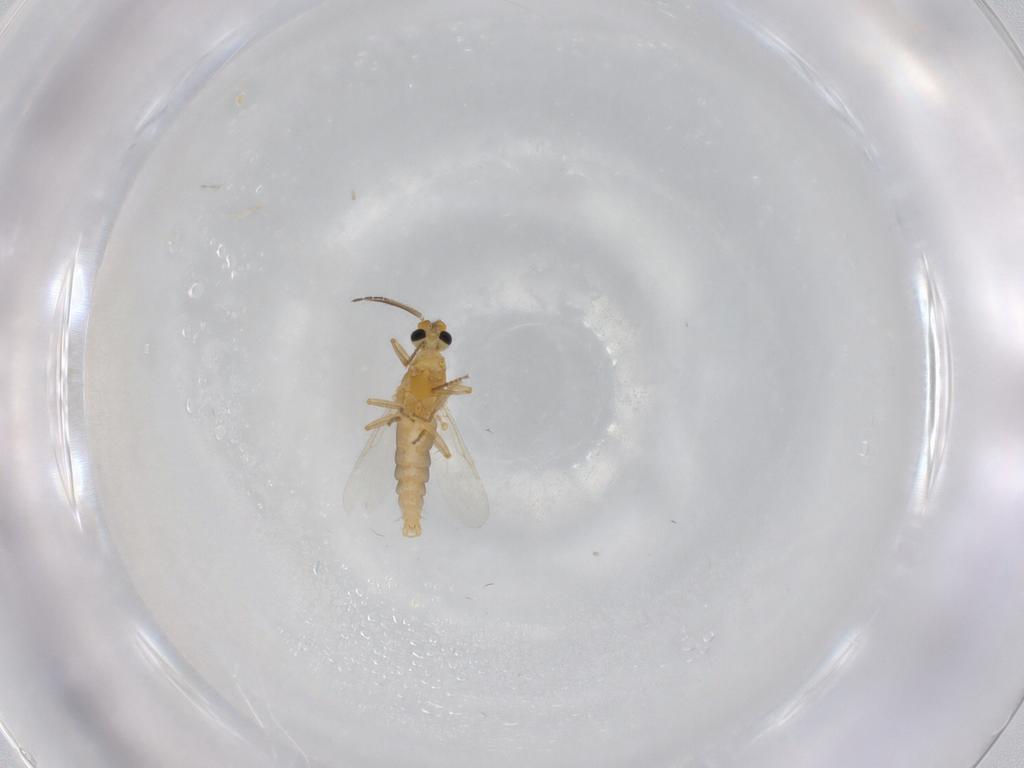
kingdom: Animalia
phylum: Arthropoda
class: Insecta
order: Diptera
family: Ceratopogonidae
